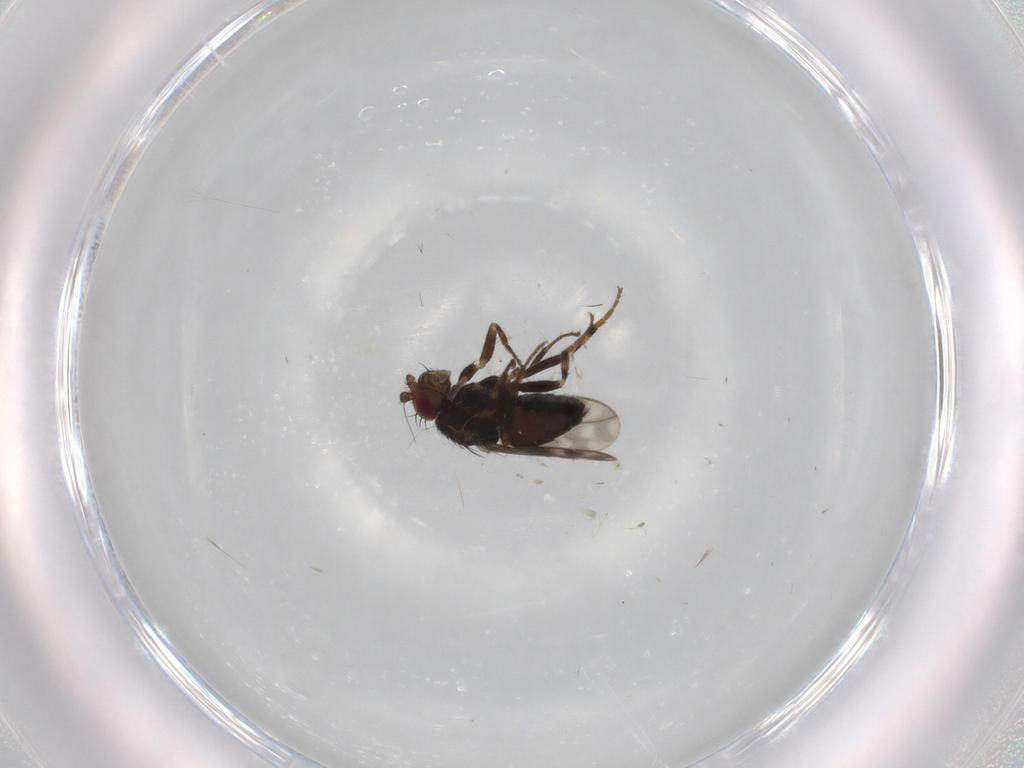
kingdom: Animalia
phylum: Arthropoda
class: Insecta
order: Diptera
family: Sphaeroceridae
